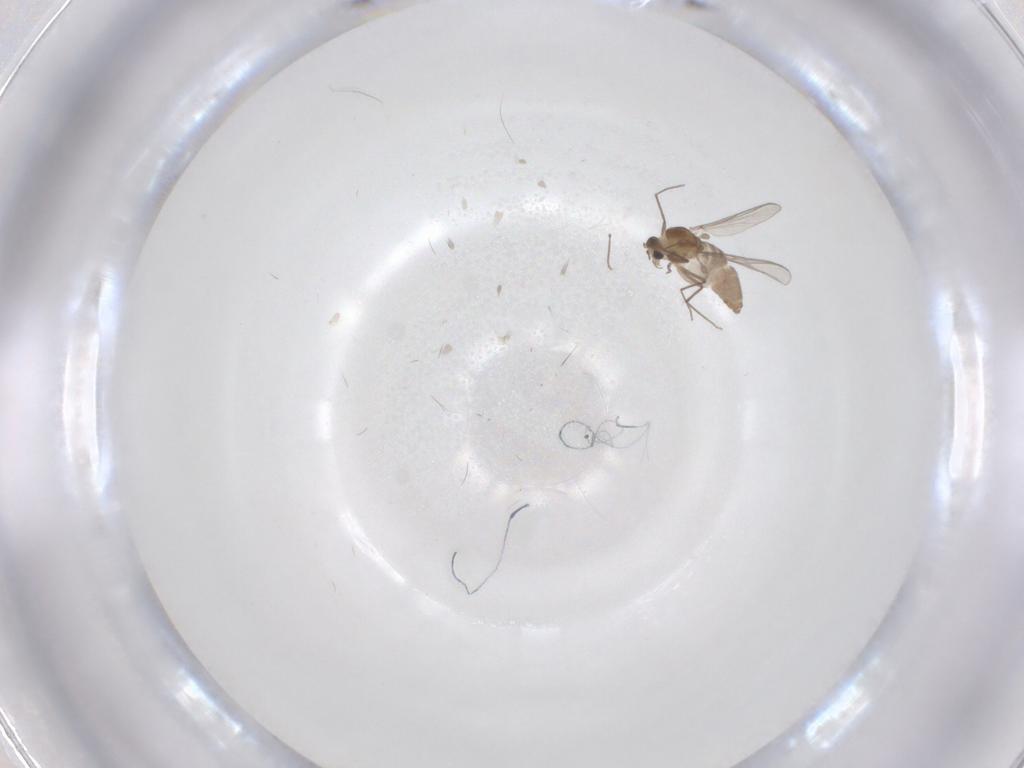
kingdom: Animalia
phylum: Arthropoda
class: Insecta
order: Diptera
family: Chironomidae
